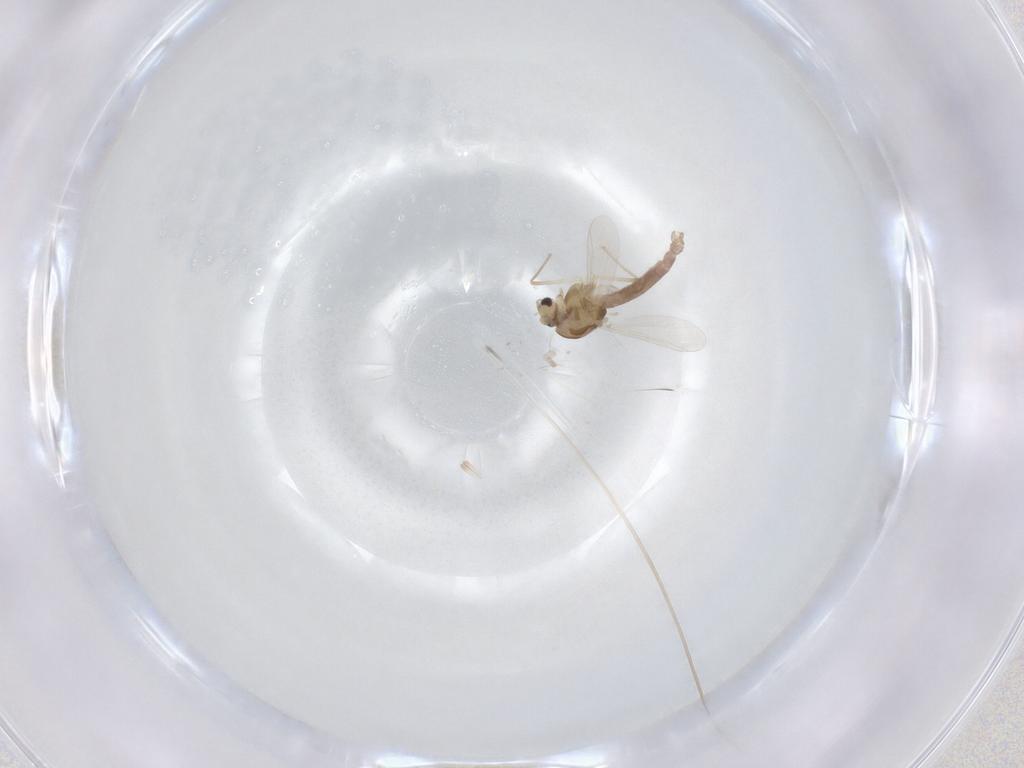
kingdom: Animalia
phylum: Arthropoda
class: Insecta
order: Diptera
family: Chironomidae
